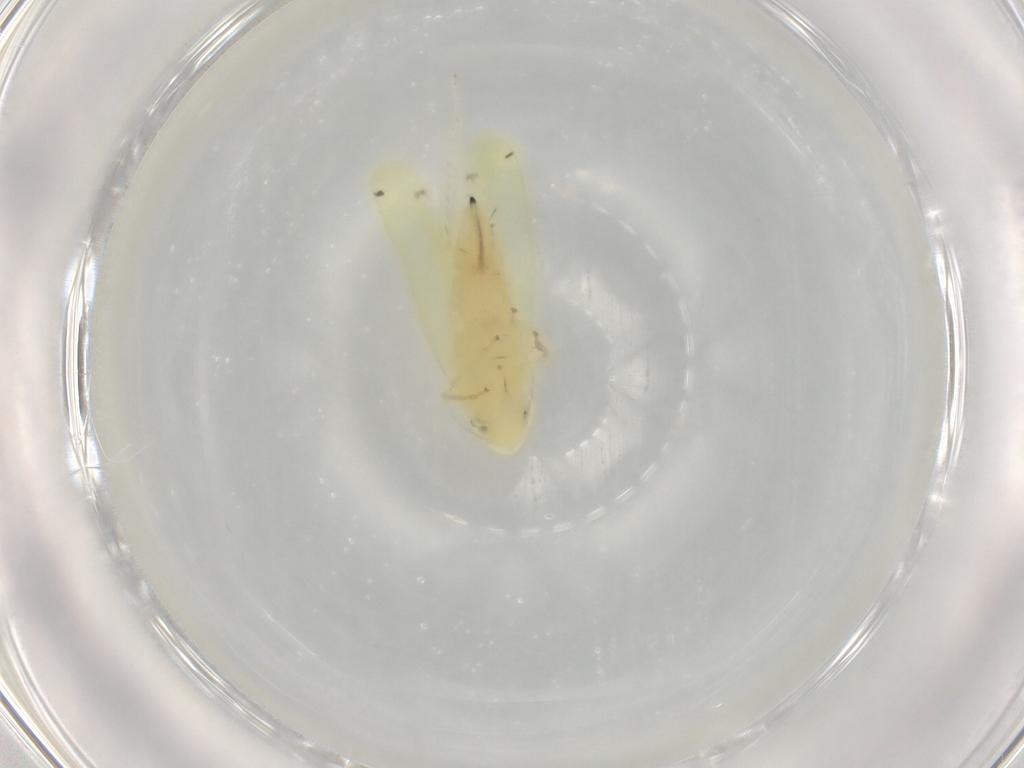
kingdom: Animalia
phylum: Arthropoda
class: Insecta
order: Hemiptera
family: Cicadellidae
